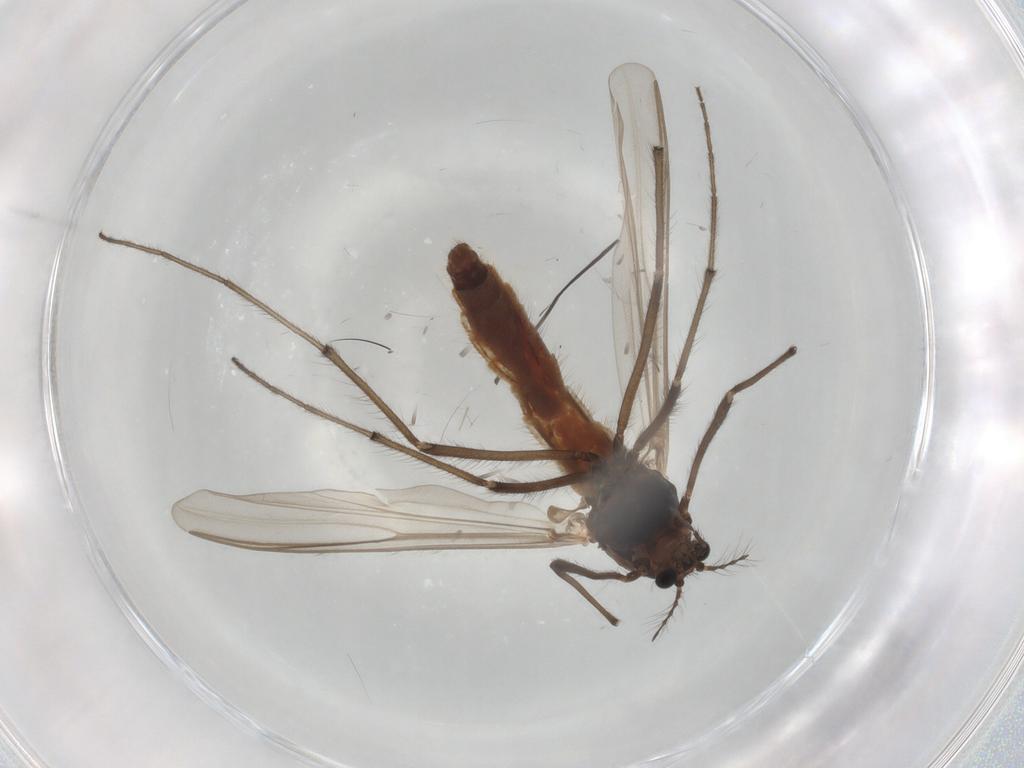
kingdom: Animalia
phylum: Arthropoda
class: Insecta
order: Diptera
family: Chironomidae
